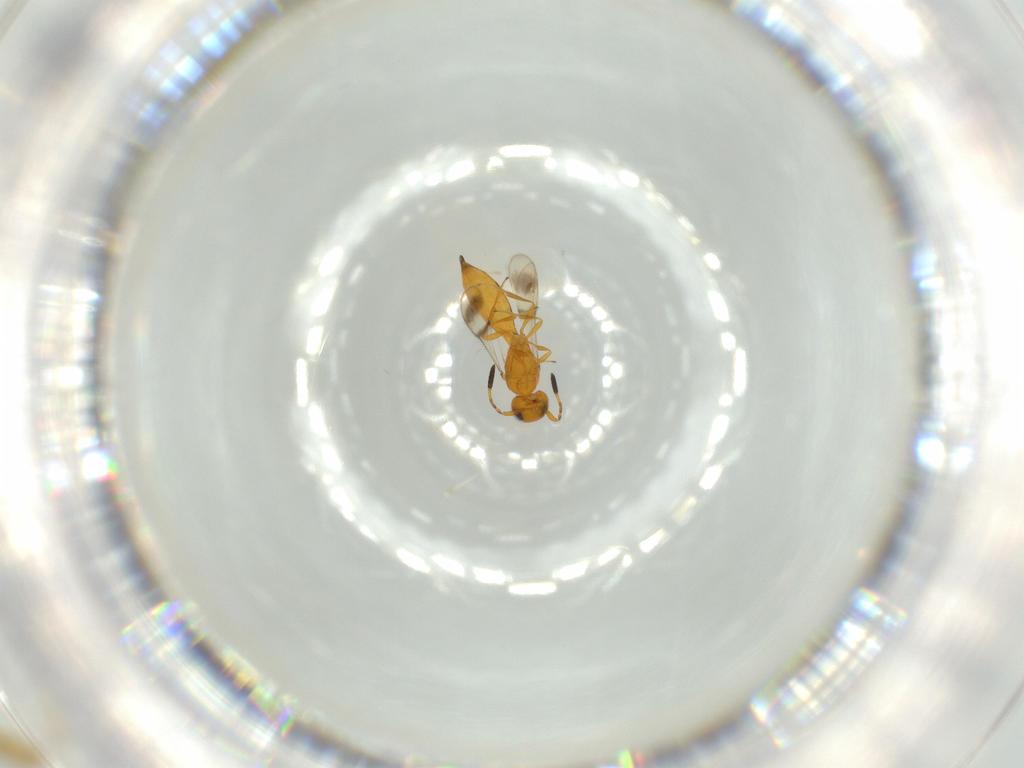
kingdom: Animalia
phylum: Arthropoda
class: Insecta
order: Hymenoptera
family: Scelionidae
